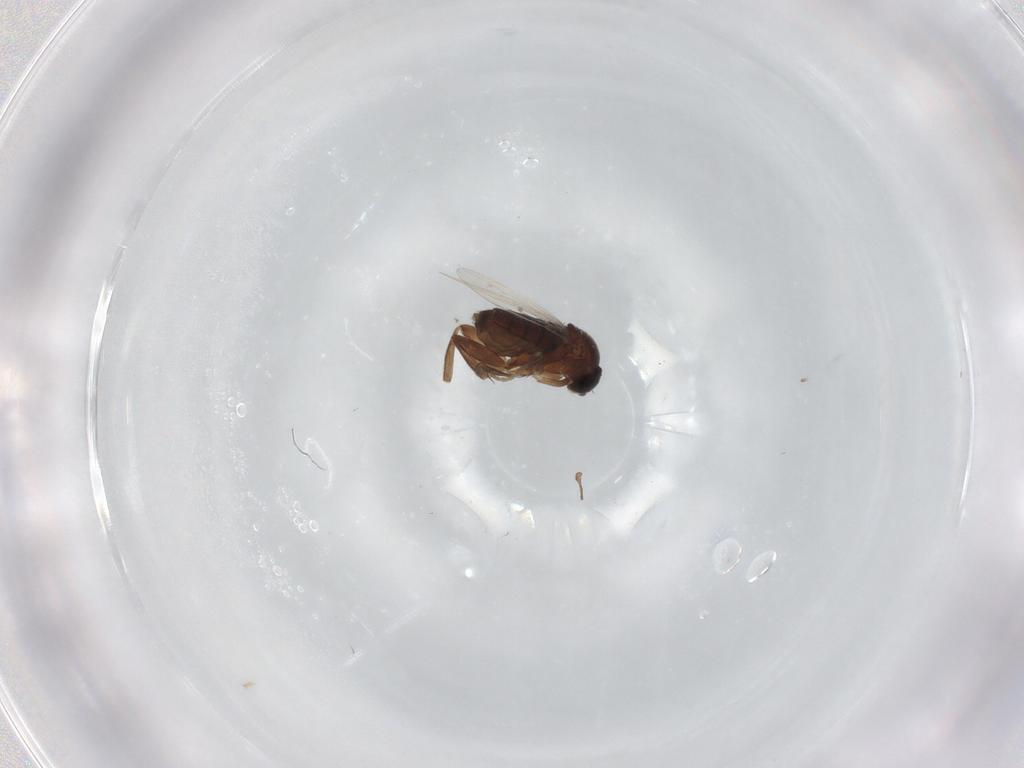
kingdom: Animalia
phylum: Arthropoda
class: Insecta
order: Diptera
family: Phoridae
